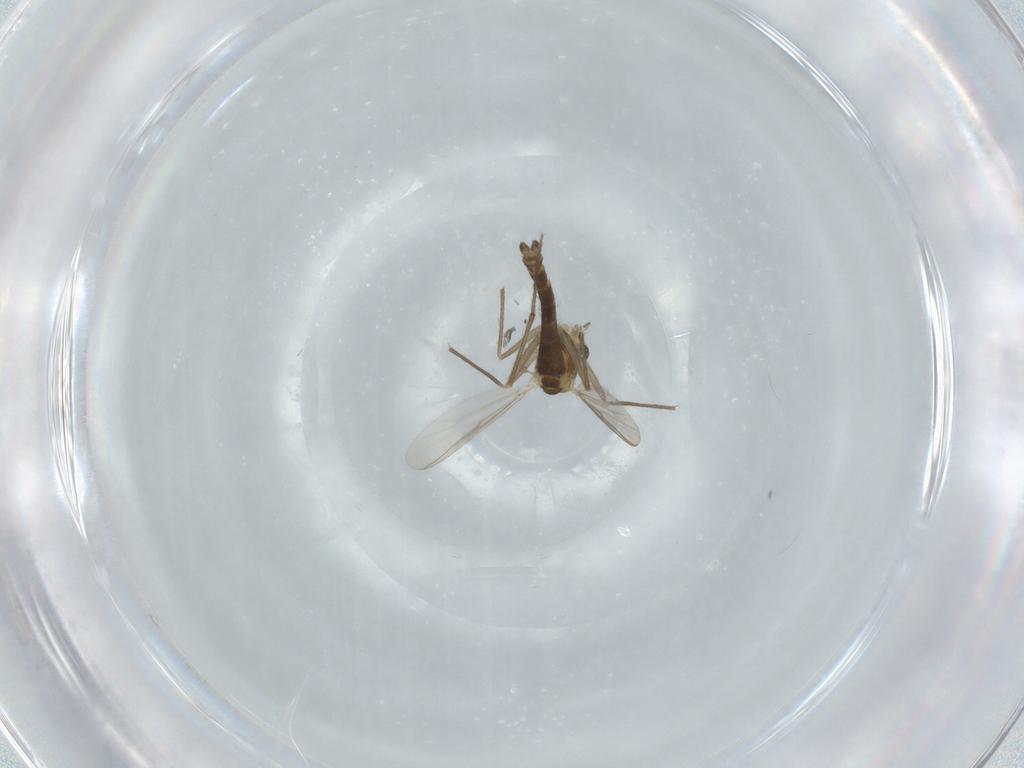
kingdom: Animalia
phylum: Arthropoda
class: Insecta
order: Diptera
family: Chironomidae
